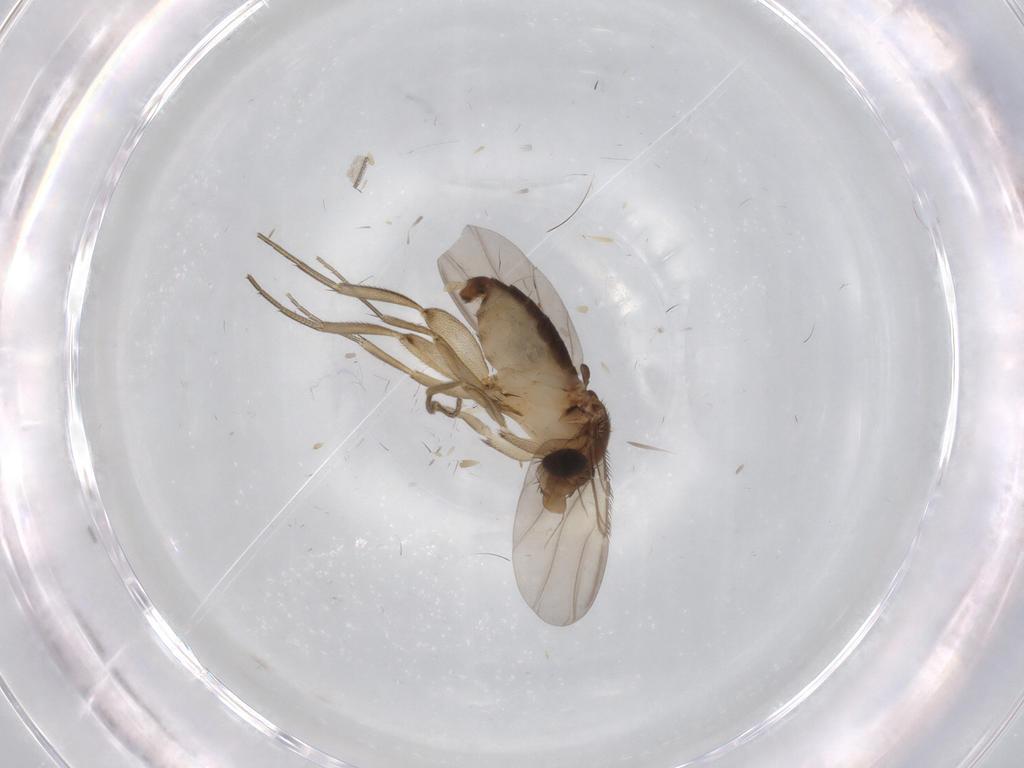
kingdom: Animalia
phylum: Arthropoda
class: Insecta
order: Diptera
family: Phoridae
